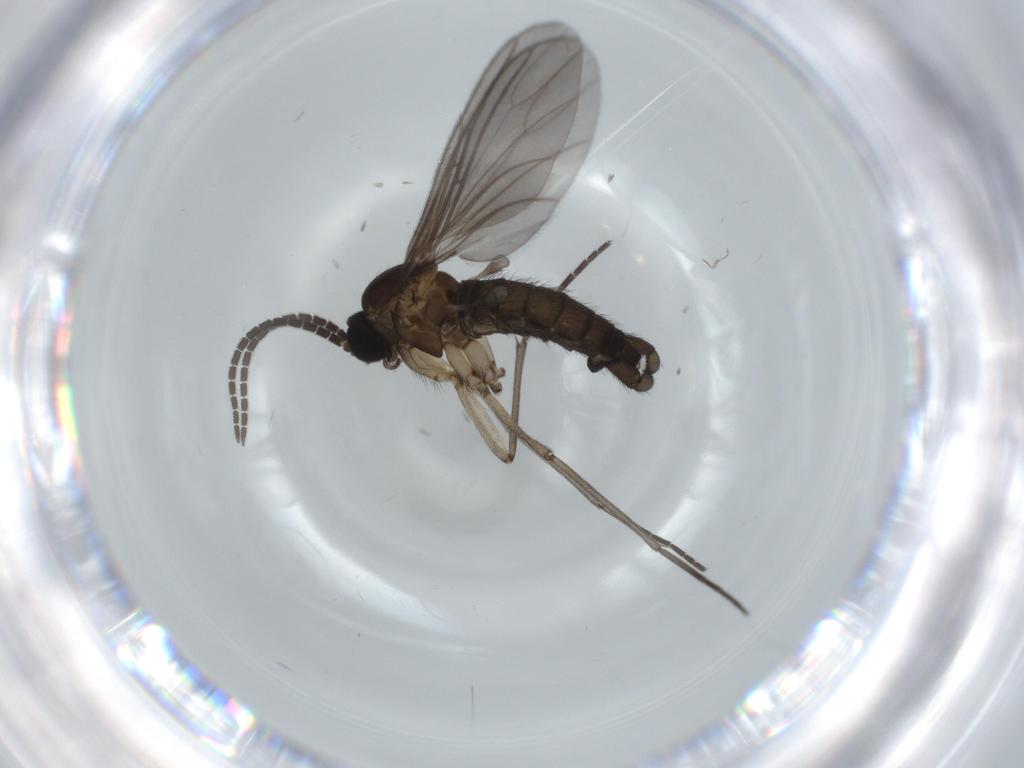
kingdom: Animalia
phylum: Arthropoda
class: Insecta
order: Diptera
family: Sciaridae
